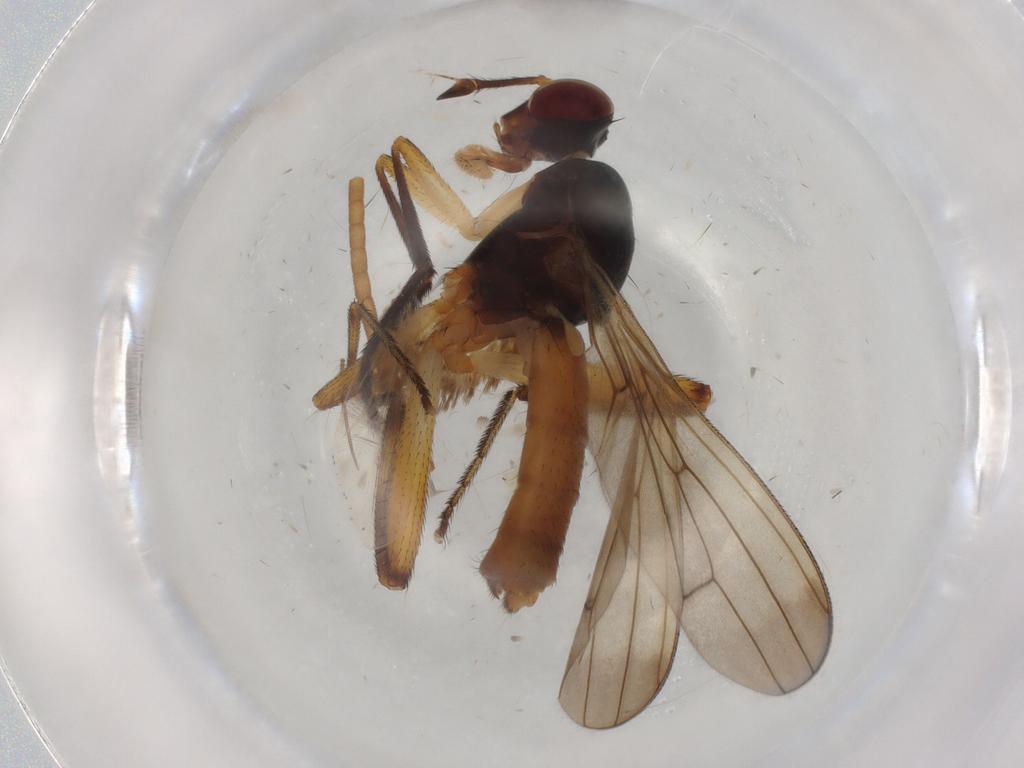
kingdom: Animalia
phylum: Arthropoda
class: Insecta
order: Diptera
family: Sciomyzidae
